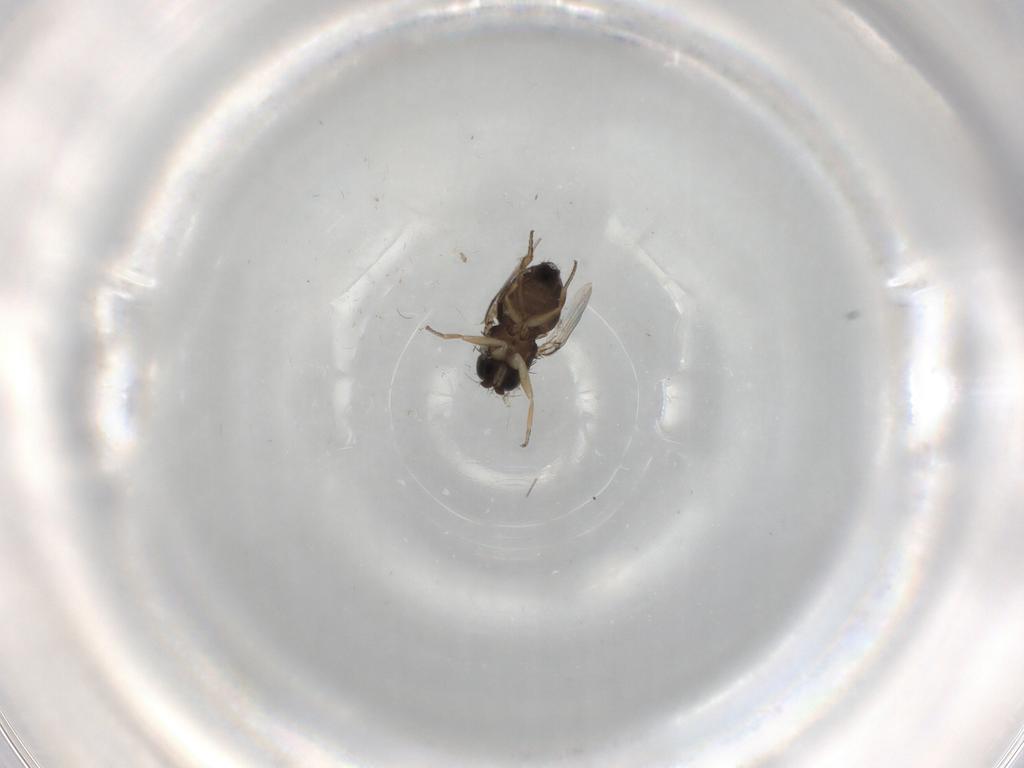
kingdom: Animalia
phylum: Arthropoda
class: Insecta
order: Diptera
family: Phoridae
